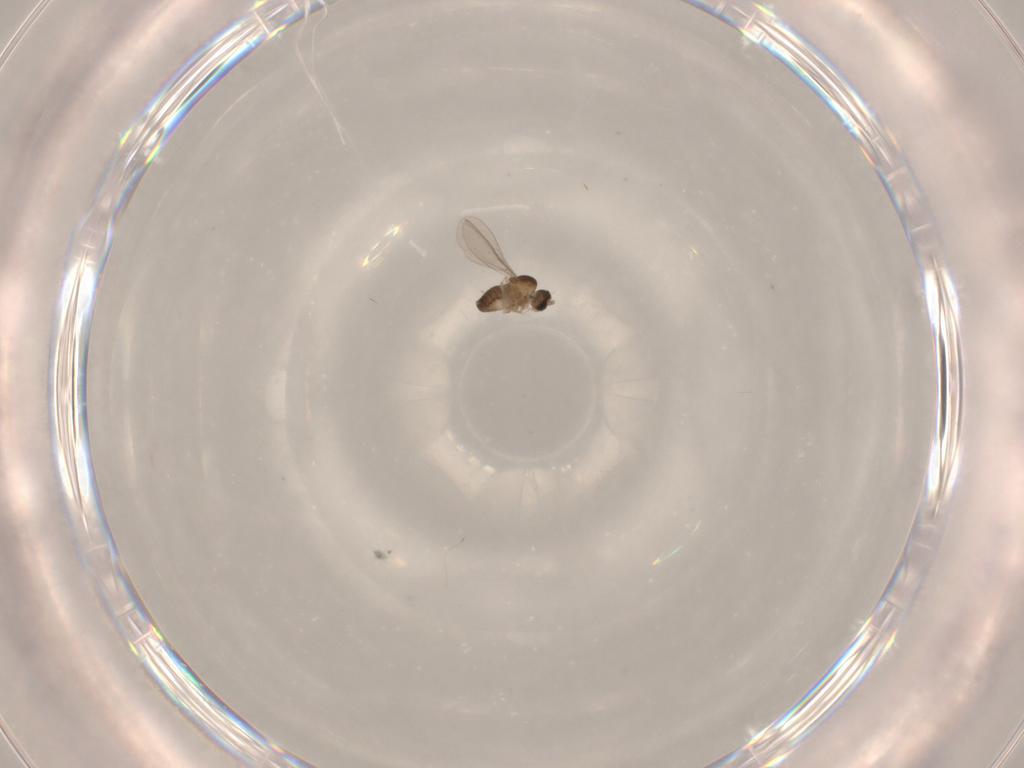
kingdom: Animalia
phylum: Arthropoda
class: Insecta
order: Diptera
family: Cecidomyiidae
